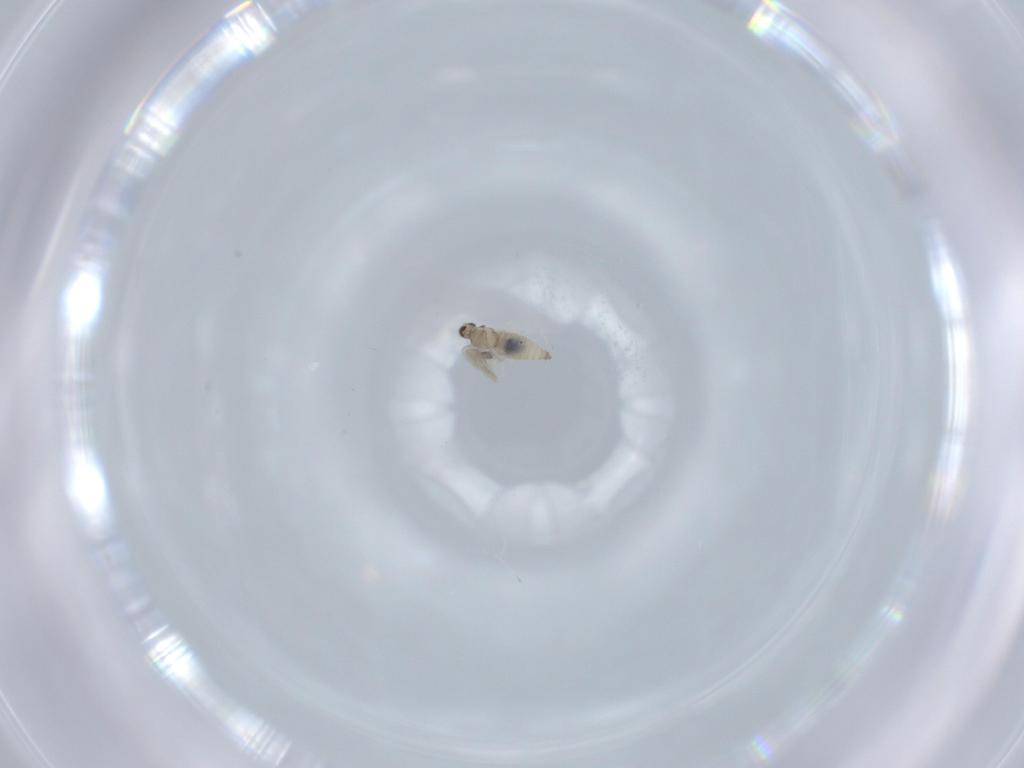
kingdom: Animalia
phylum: Arthropoda
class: Insecta
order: Diptera
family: Cecidomyiidae
